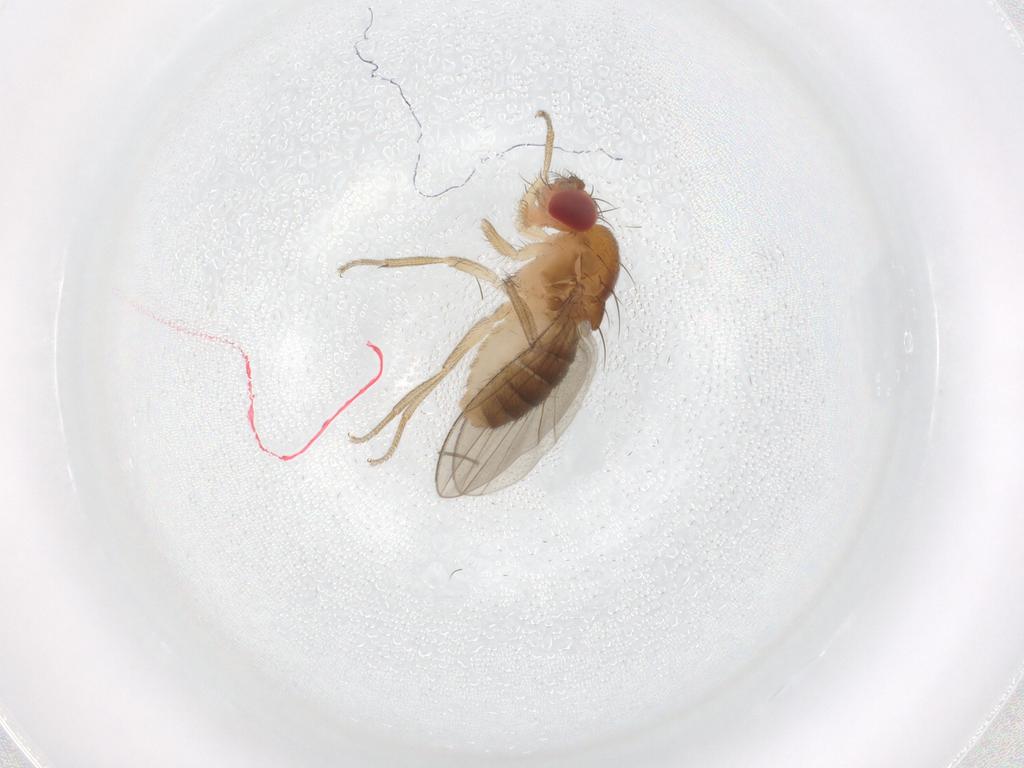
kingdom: Animalia
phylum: Arthropoda
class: Insecta
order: Diptera
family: Drosophilidae
